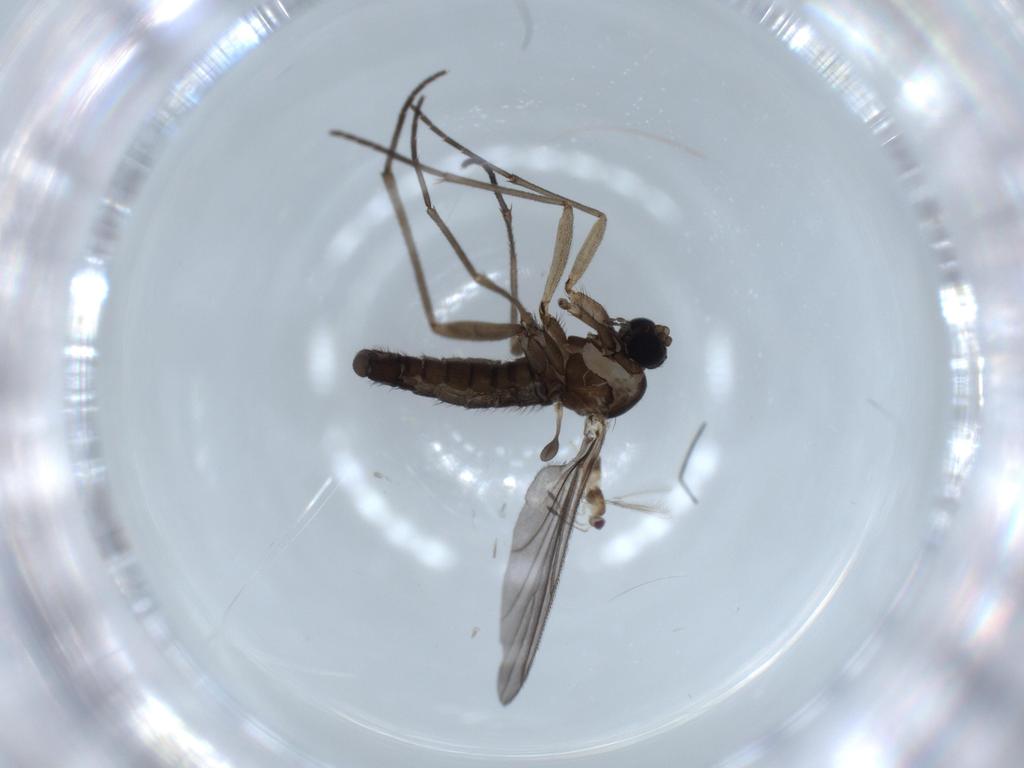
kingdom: Animalia
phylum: Arthropoda
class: Insecta
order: Diptera
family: Sciaridae
